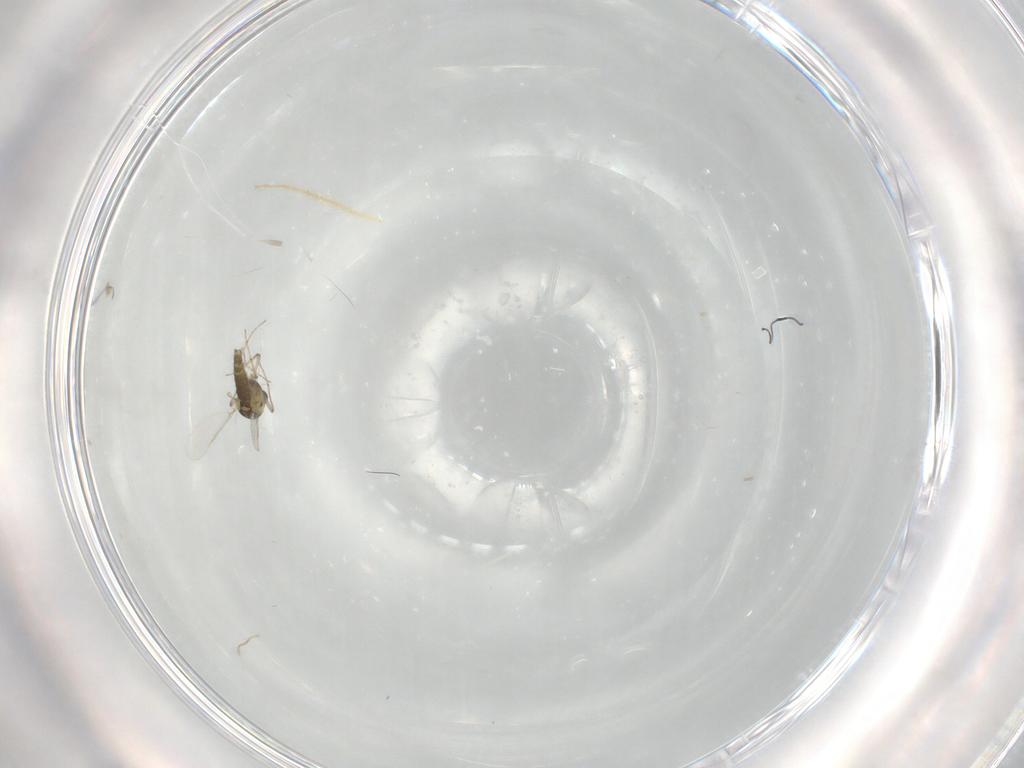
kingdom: Animalia
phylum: Arthropoda
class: Insecta
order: Diptera
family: Chironomidae
